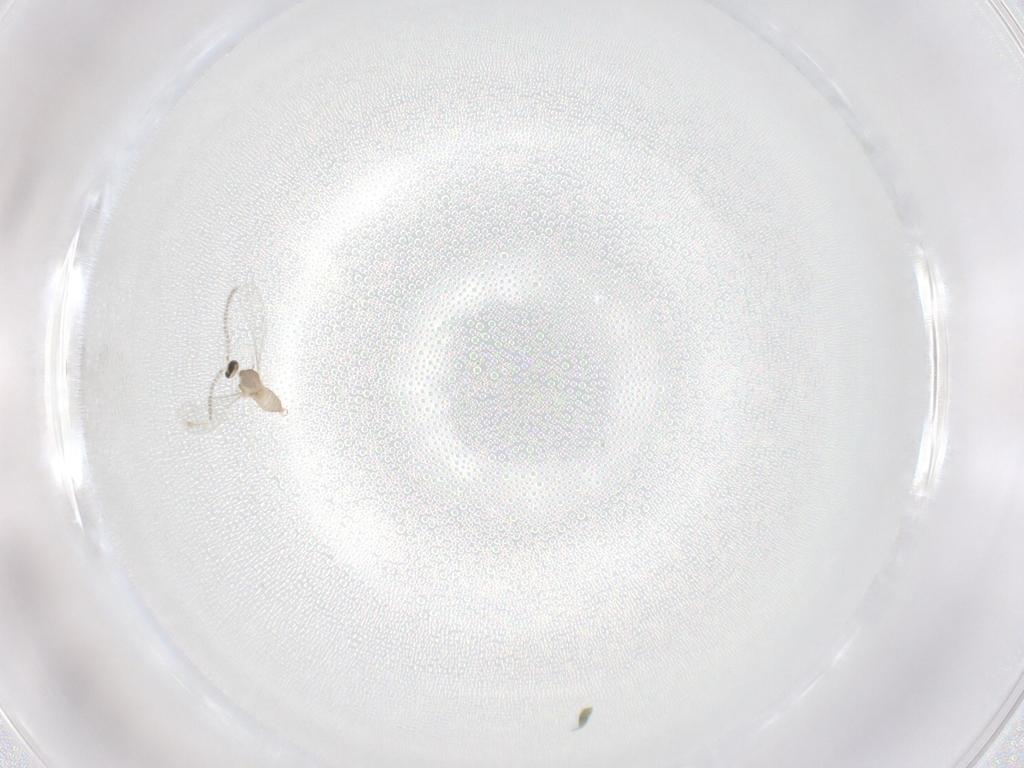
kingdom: Animalia
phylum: Arthropoda
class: Insecta
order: Diptera
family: Cecidomyiidae
